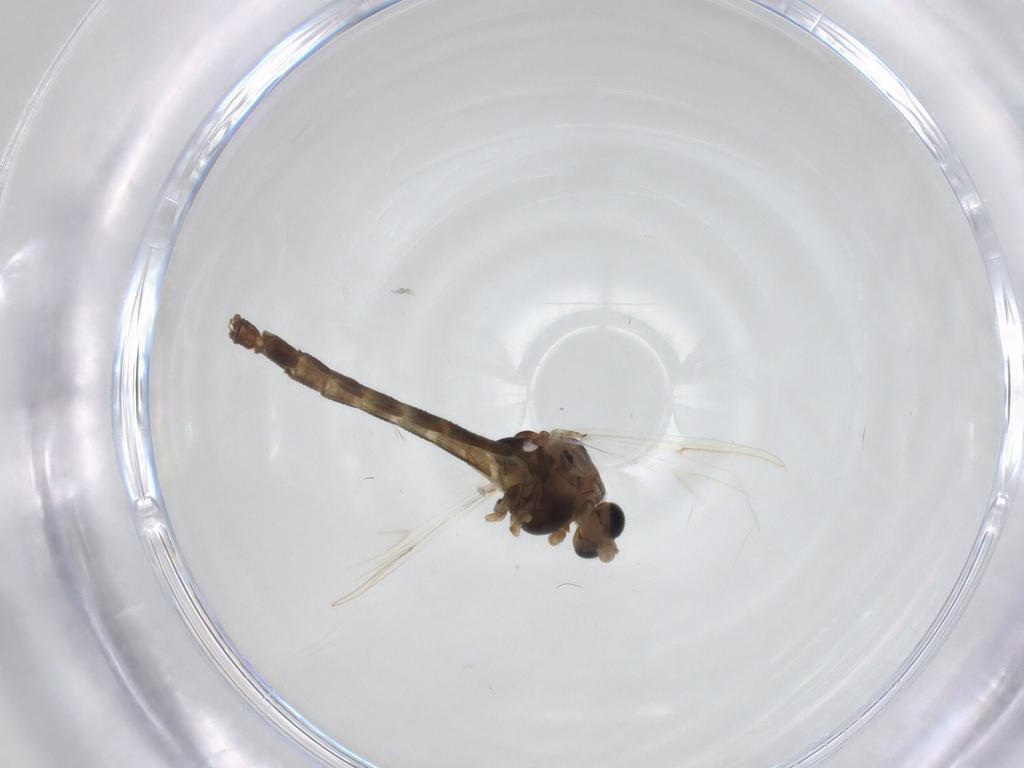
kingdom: Animalia
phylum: Arthropoda
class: Insecta
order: Diptera
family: Chironomidae
